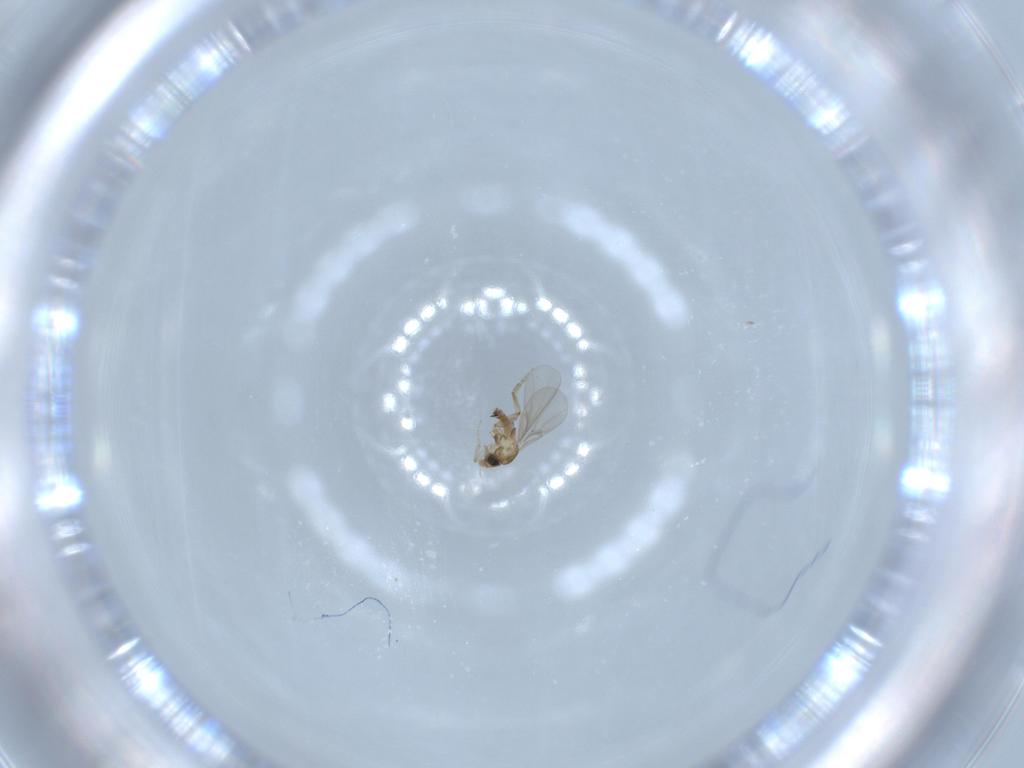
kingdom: Animalia
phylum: Arthropoda
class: Insecta
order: Diptera
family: Cecidomyiidae
